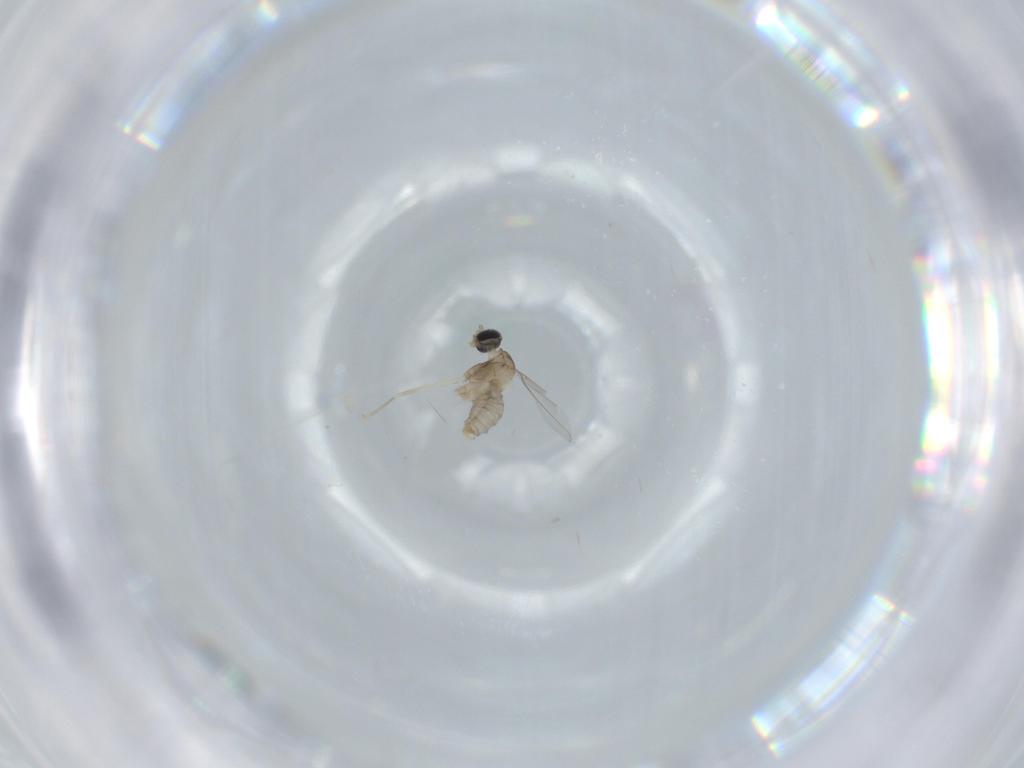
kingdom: Animalia
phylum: Arthropoda
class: Insecta
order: Diptera
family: Cecidomyiidae
